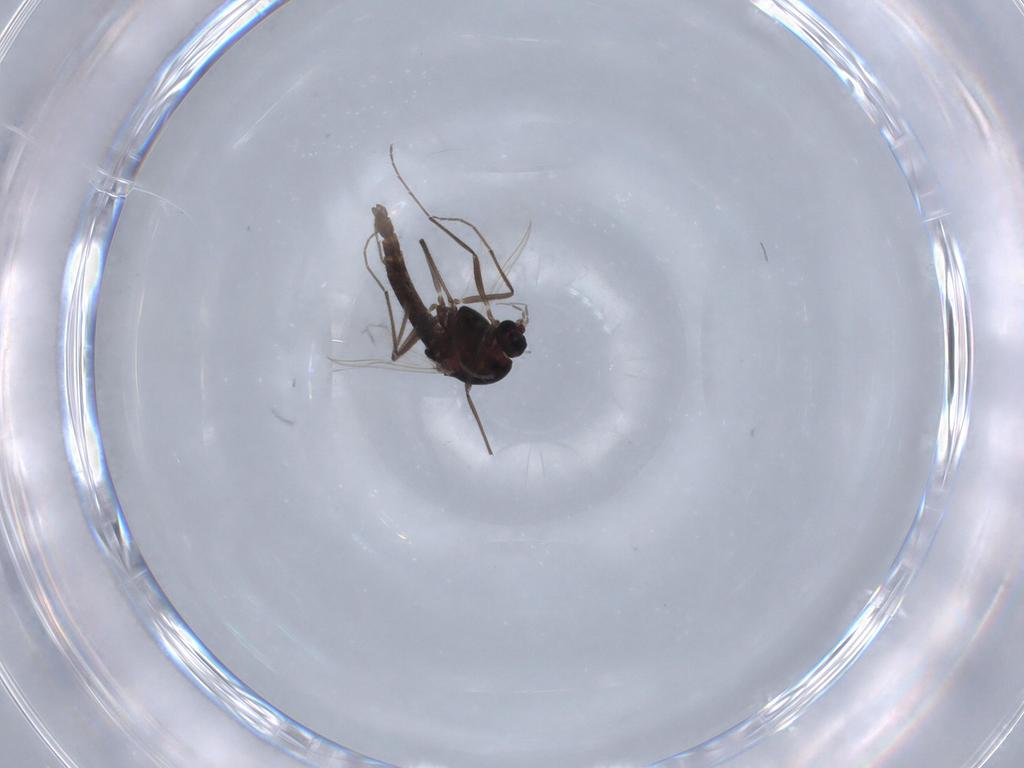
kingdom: Animalia
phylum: Arthropoda
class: Insecta
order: Diptera
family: Chironomidae
